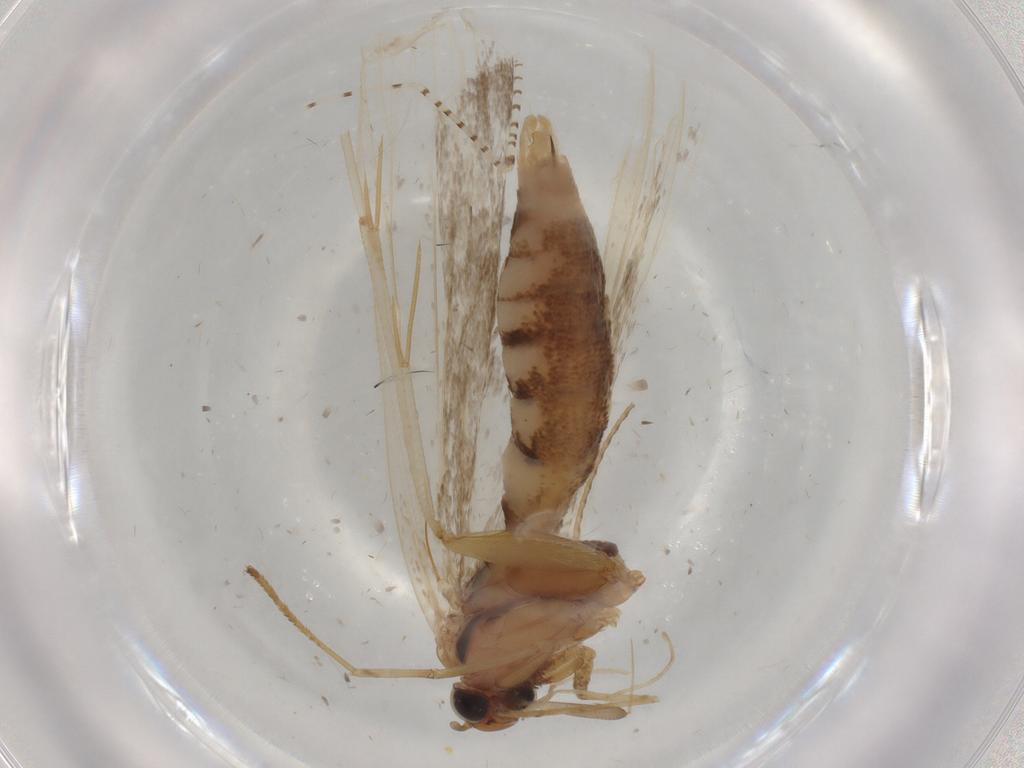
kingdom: Animalia
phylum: Arthropoda
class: Insecta
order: Lepidoptera
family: Gelechiidae
